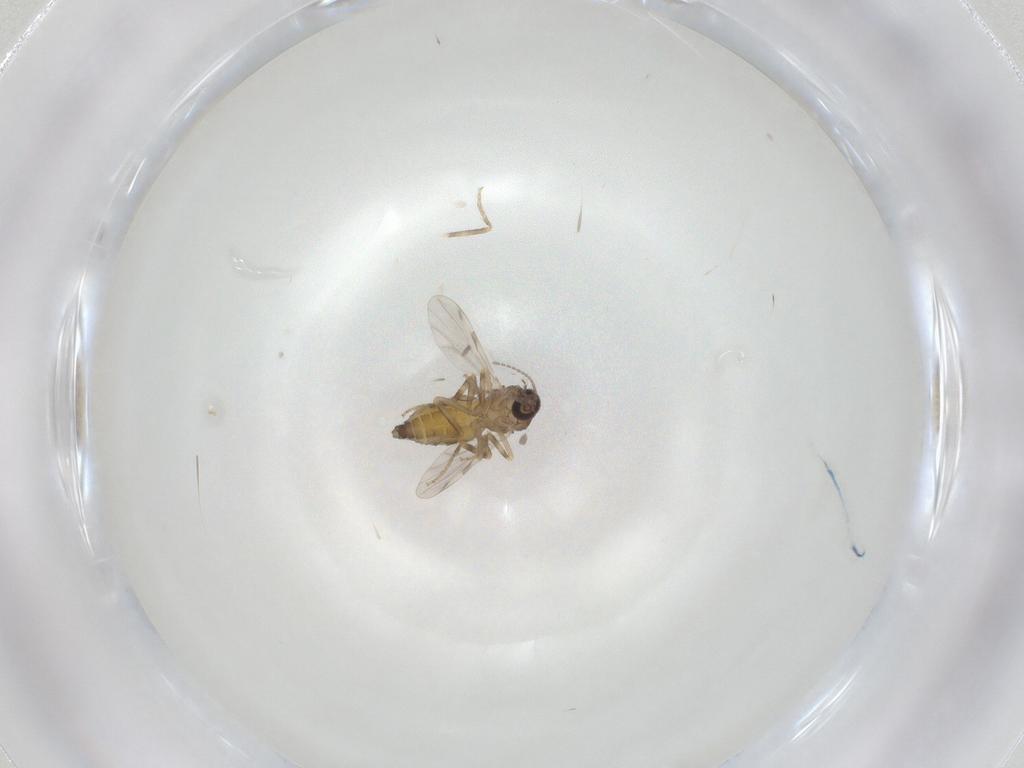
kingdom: Animalia
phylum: Arthropoda
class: Insecta
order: Diptera
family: Ceratopogonidae
